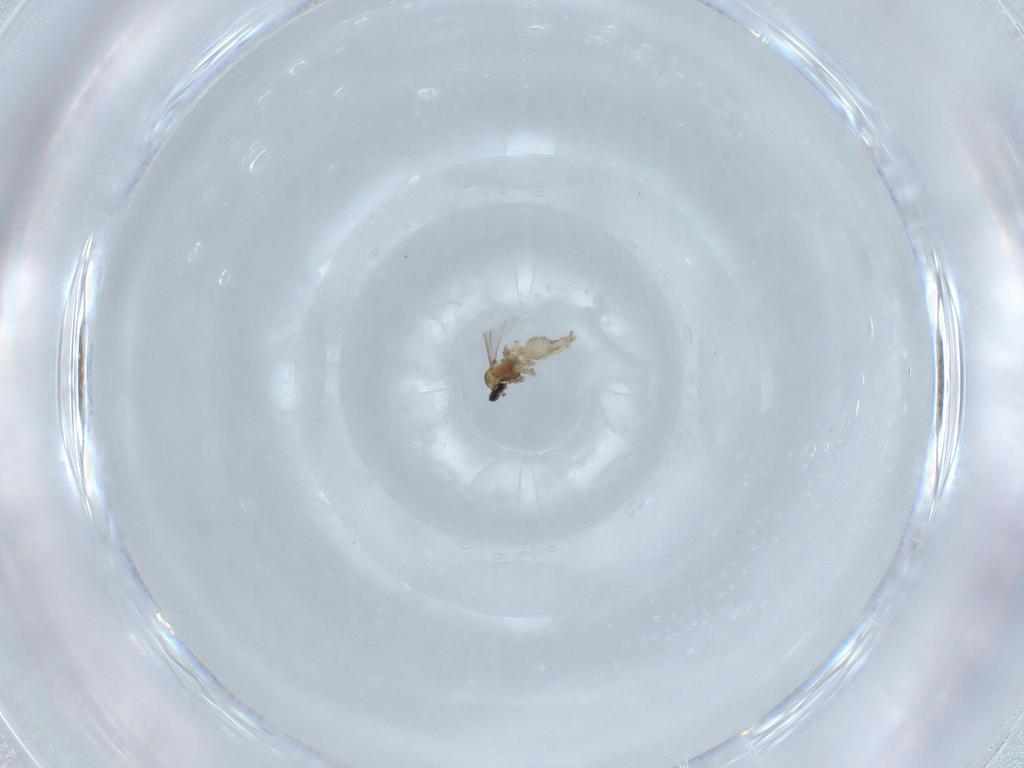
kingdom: Animalia
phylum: Arthropoda
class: Insecta
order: Diptera
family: Cecidomyiidae
